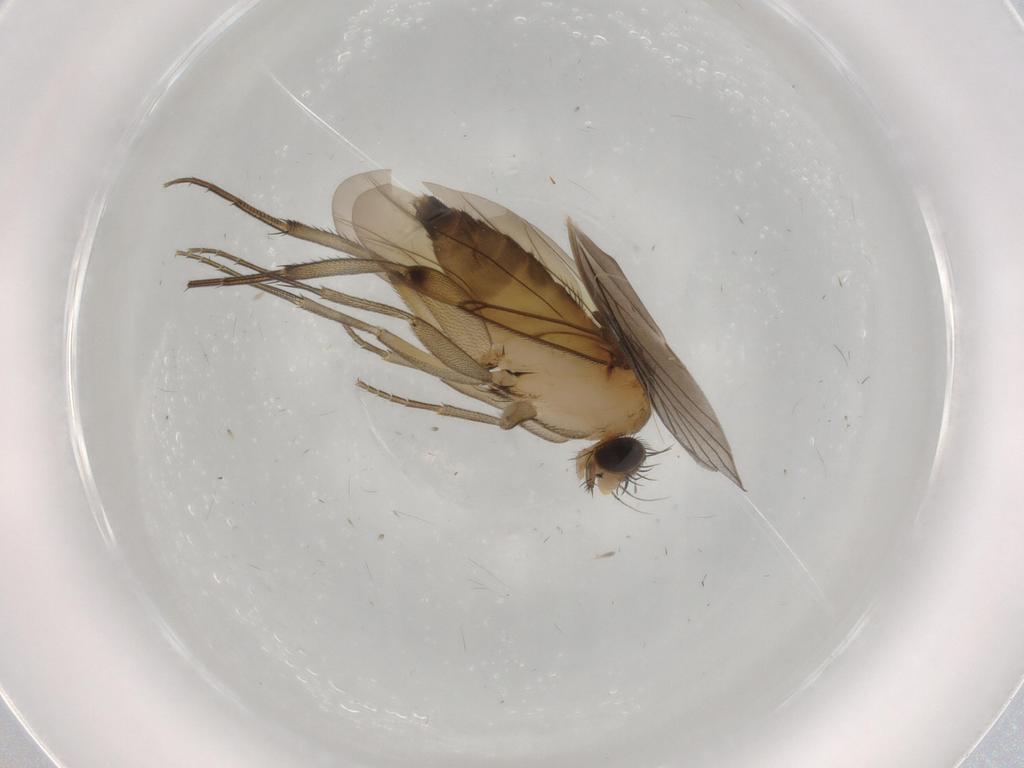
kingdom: Animalia
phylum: Arthropoda
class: Insecta
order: Diptera
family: Phoridae
